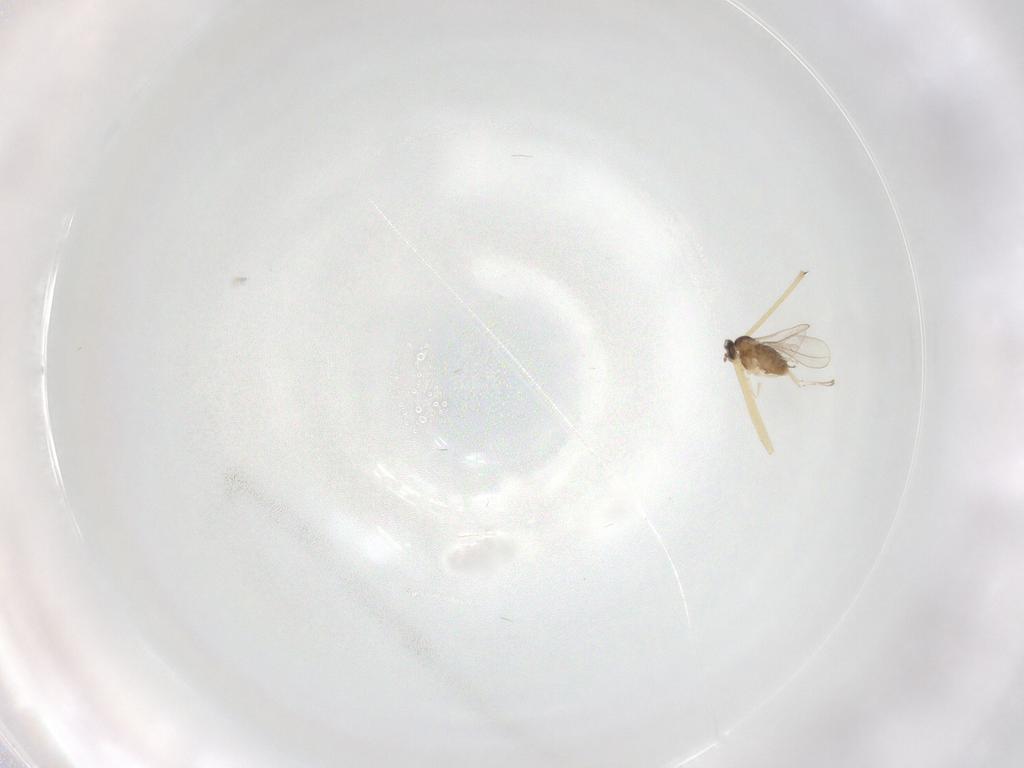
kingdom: Animalia
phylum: Arthropoda
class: Insecta
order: Diptera
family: Cecidomyiidae
